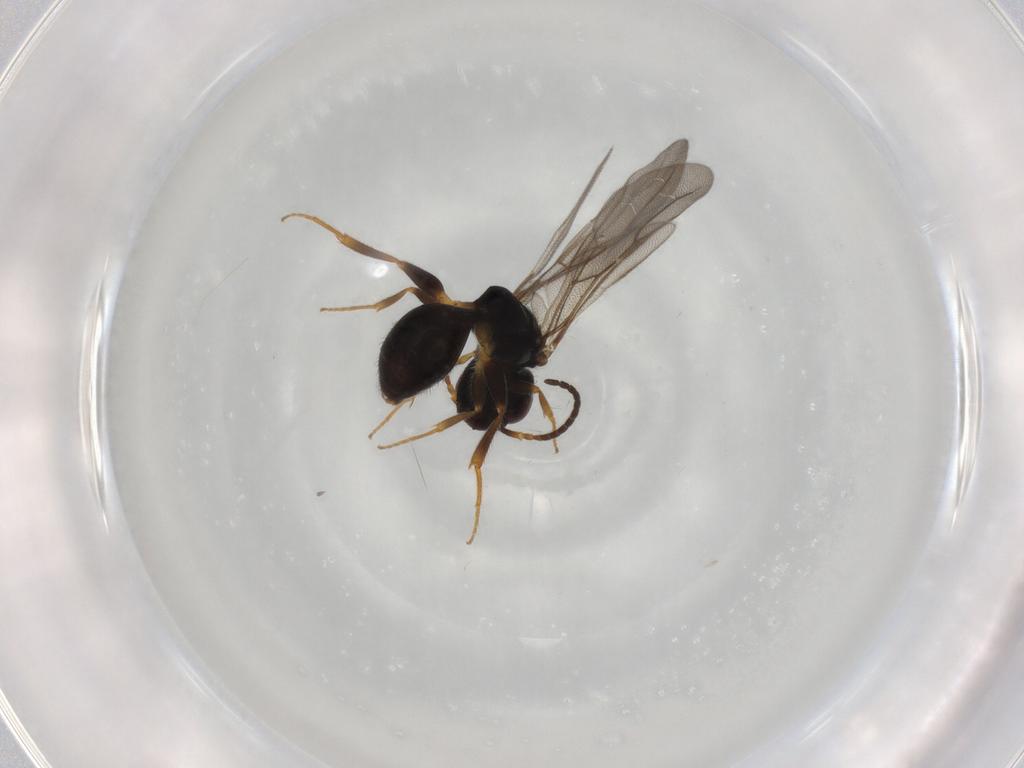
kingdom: Animalia
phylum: Arthropoda
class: Insecta
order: Hymenoptera
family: Bethylidae
